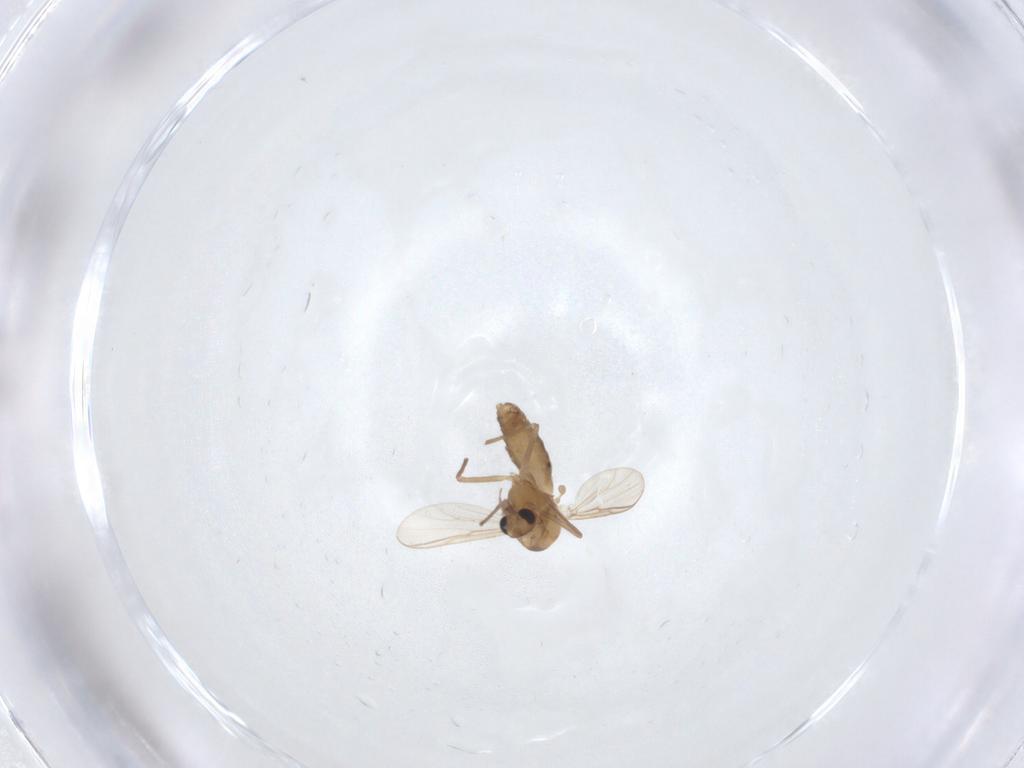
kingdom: Animalia
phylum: Arthropoda
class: Insecta
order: Diptera
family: Chironomidae
